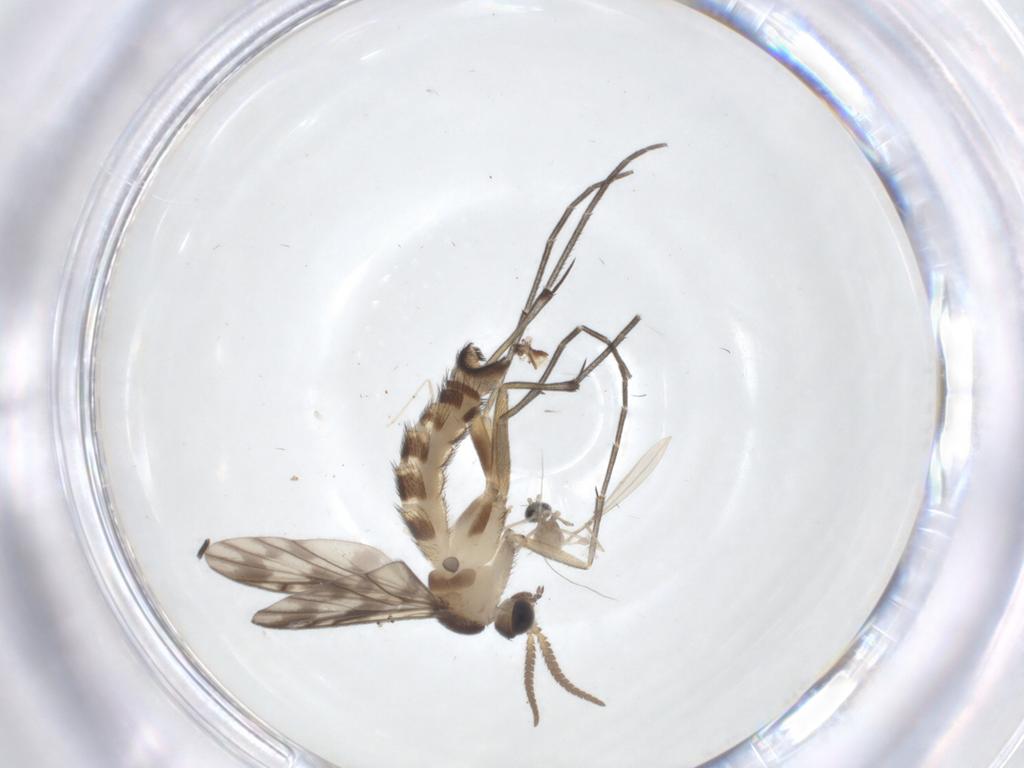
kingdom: Animalia
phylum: Arthropoda
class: Insecta
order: Diptera
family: Keroplatidae
